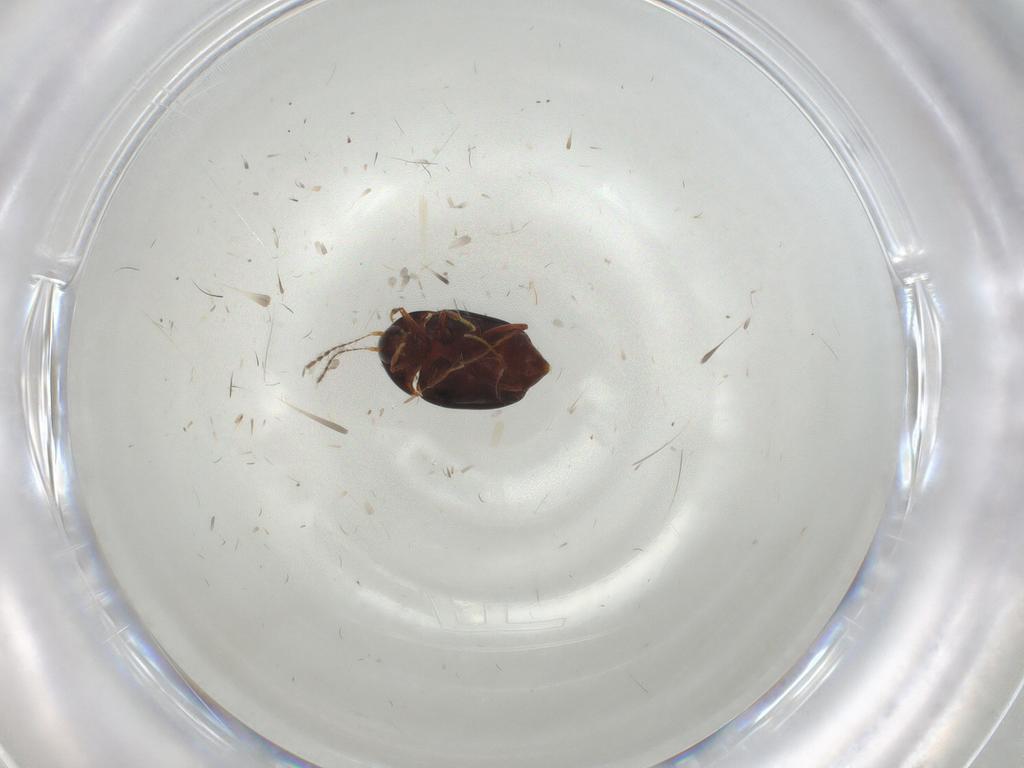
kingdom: Animalia
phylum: Arthropoda
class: Insecta
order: Coleoptera
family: Staphylinidae
